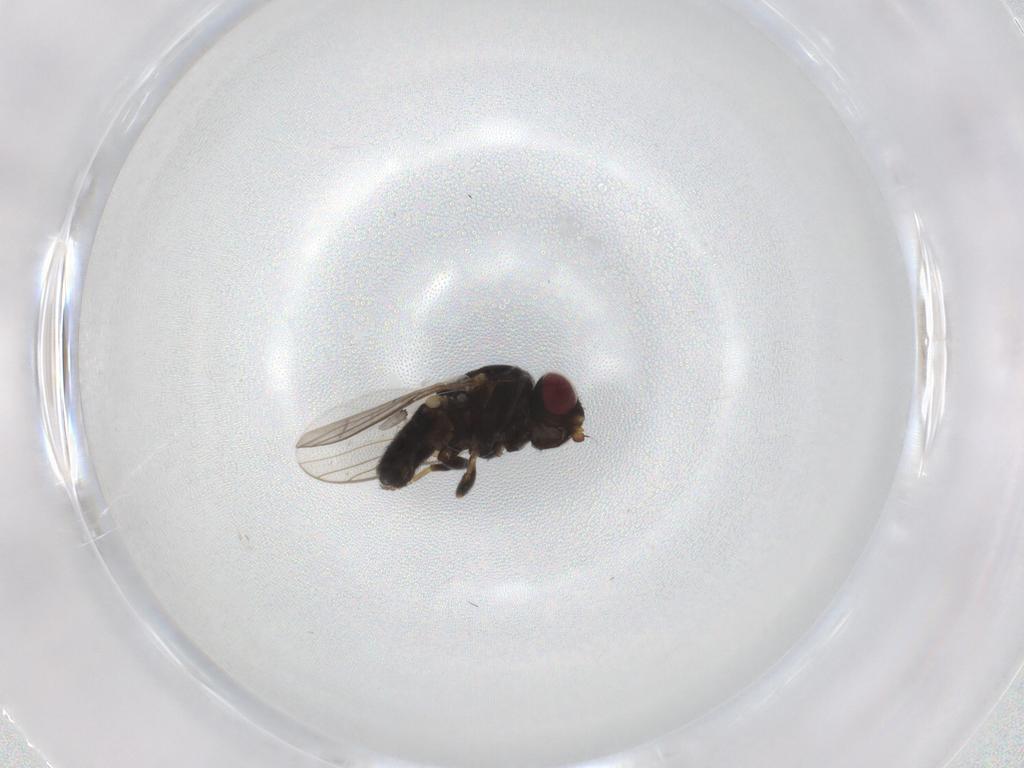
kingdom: Animalia
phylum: Arthropoda
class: Insecta
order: Diptera
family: Chloropidae
